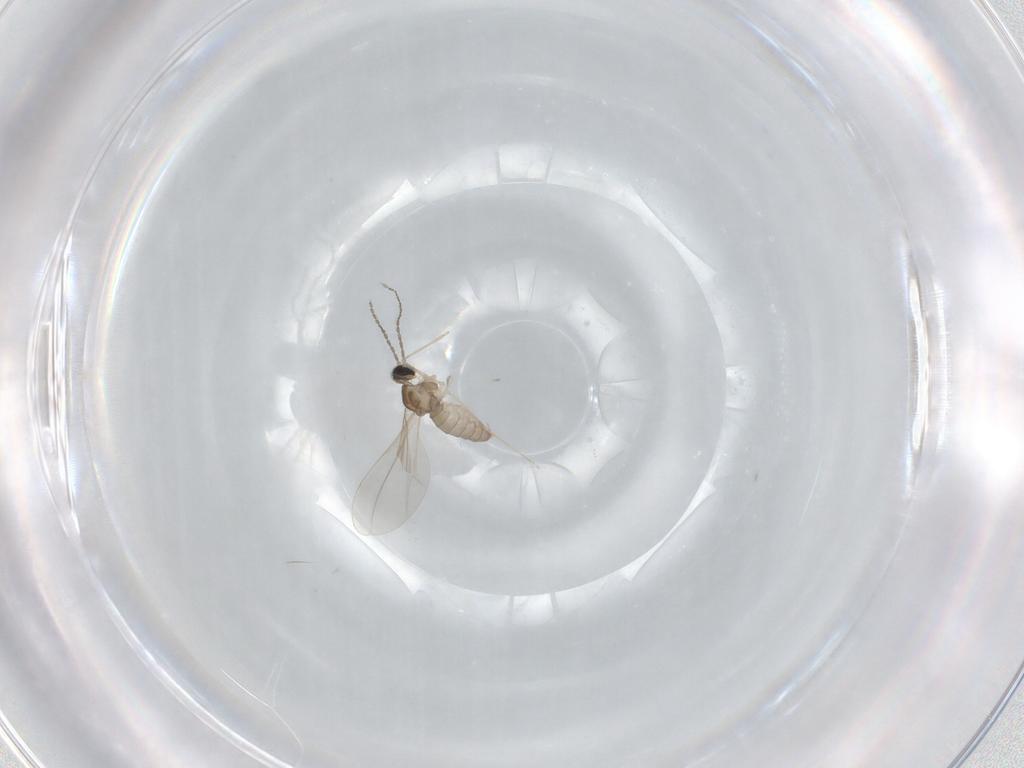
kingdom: Animalia
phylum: Arthropoda
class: Insecta
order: Diptera
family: Cecidomyiidae
